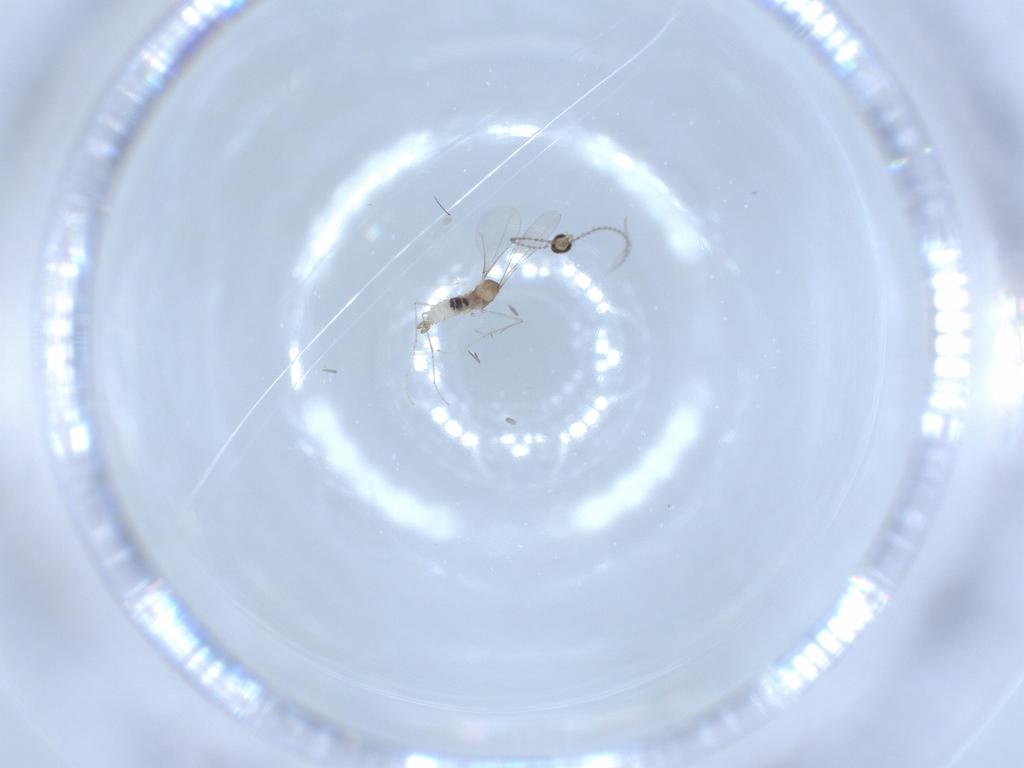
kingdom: Animalia
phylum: Arthropoda
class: Insecta
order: Diptera
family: Cecidomyiidae
